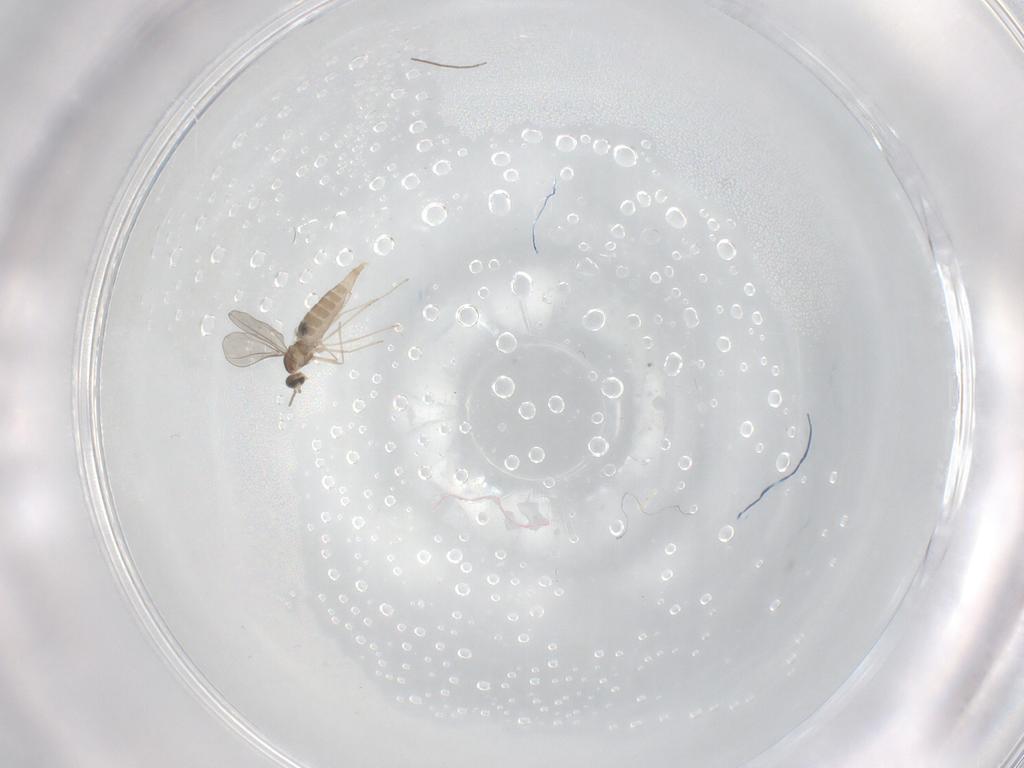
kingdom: Animalia
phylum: Arthropoda
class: Insecta
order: Diptera
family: Chironomidae
